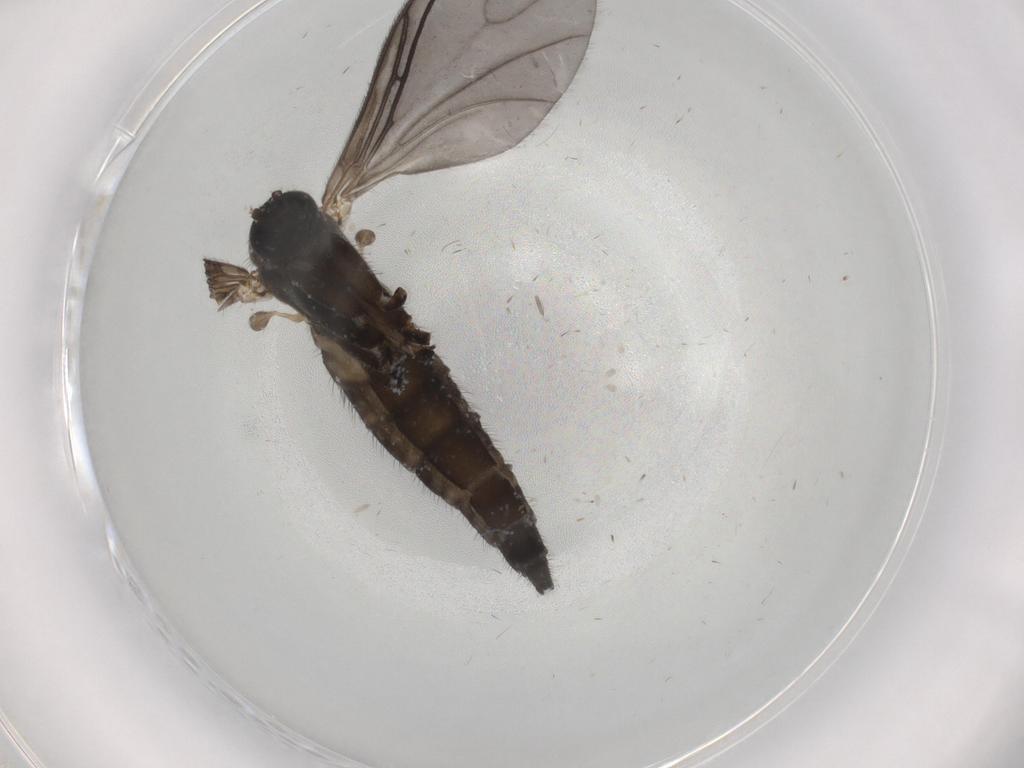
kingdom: Animalia
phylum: Arthropoda
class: Insecta
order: Diptera
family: Sciaridae
